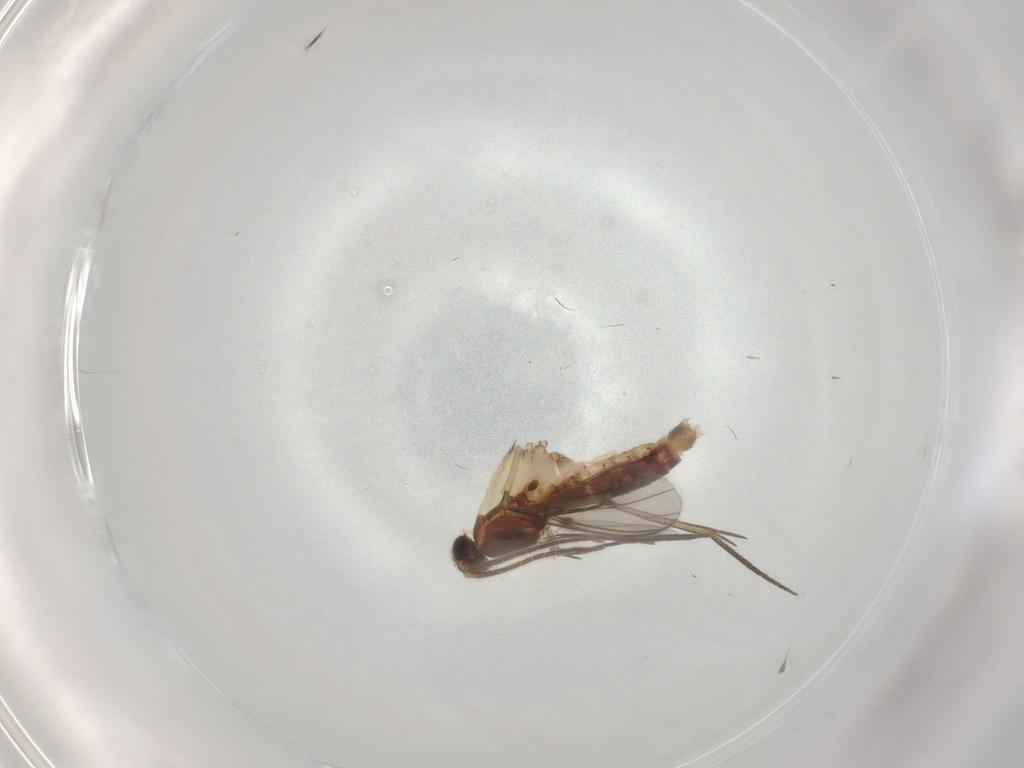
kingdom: Animalia
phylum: Arthropoda
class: Insecta
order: Diptera
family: Mycetophilidae
